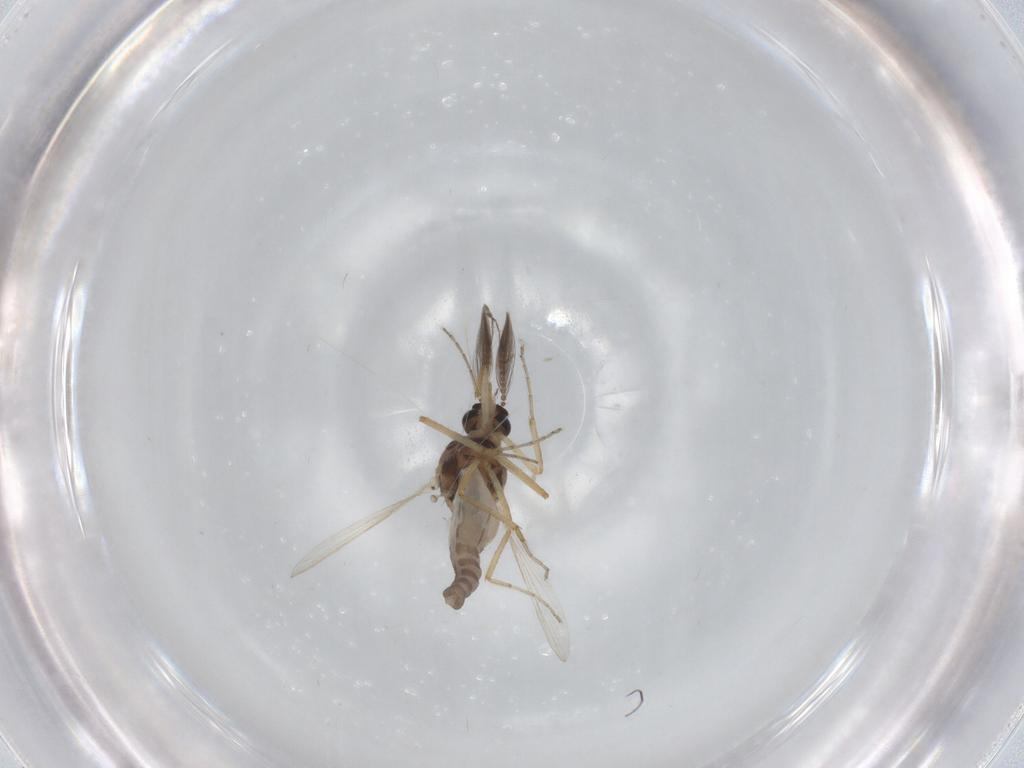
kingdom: Animalia
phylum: Arthropoda
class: Insecta
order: Diptera
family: Ceratopogonidae
